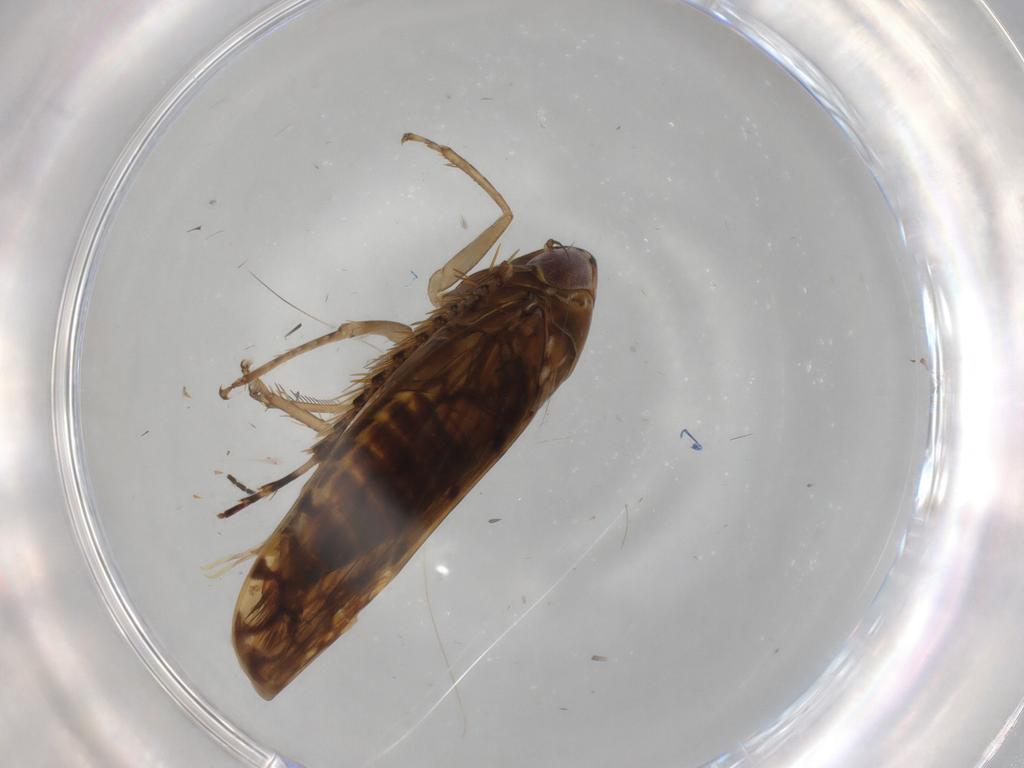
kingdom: Animalia
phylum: Arthropoda
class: Insecta
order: Hemiptera
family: Cicadellidae
